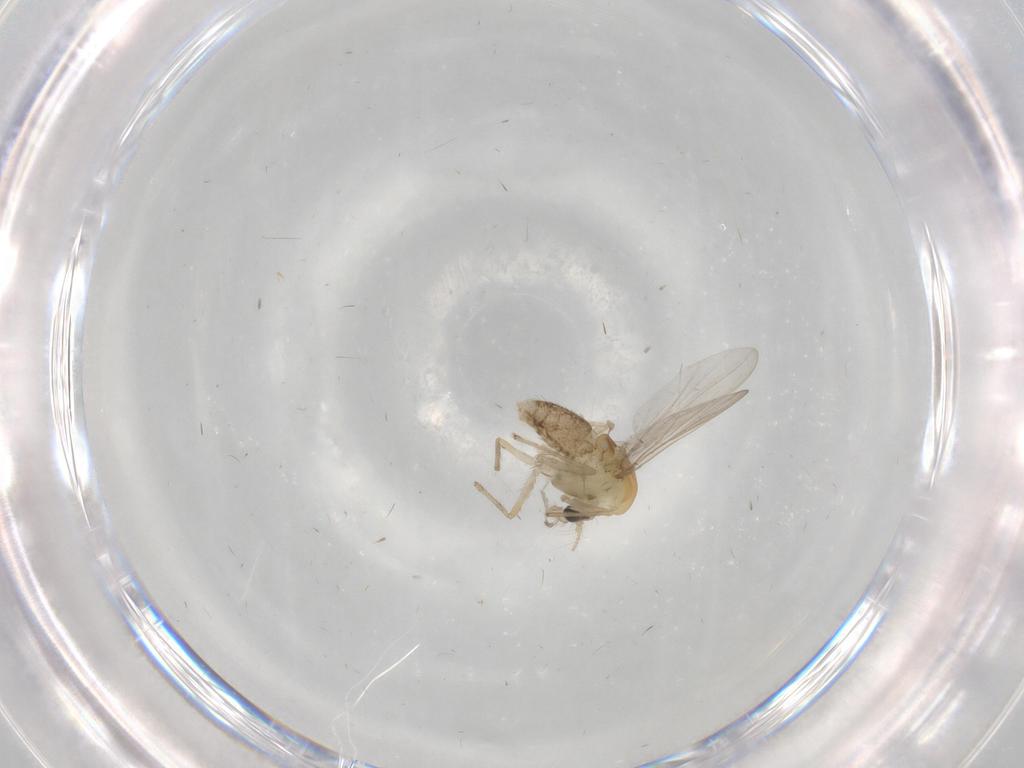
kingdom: Animalia
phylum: Arthropoda
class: Insecta
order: Diptera
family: Chironomidae
